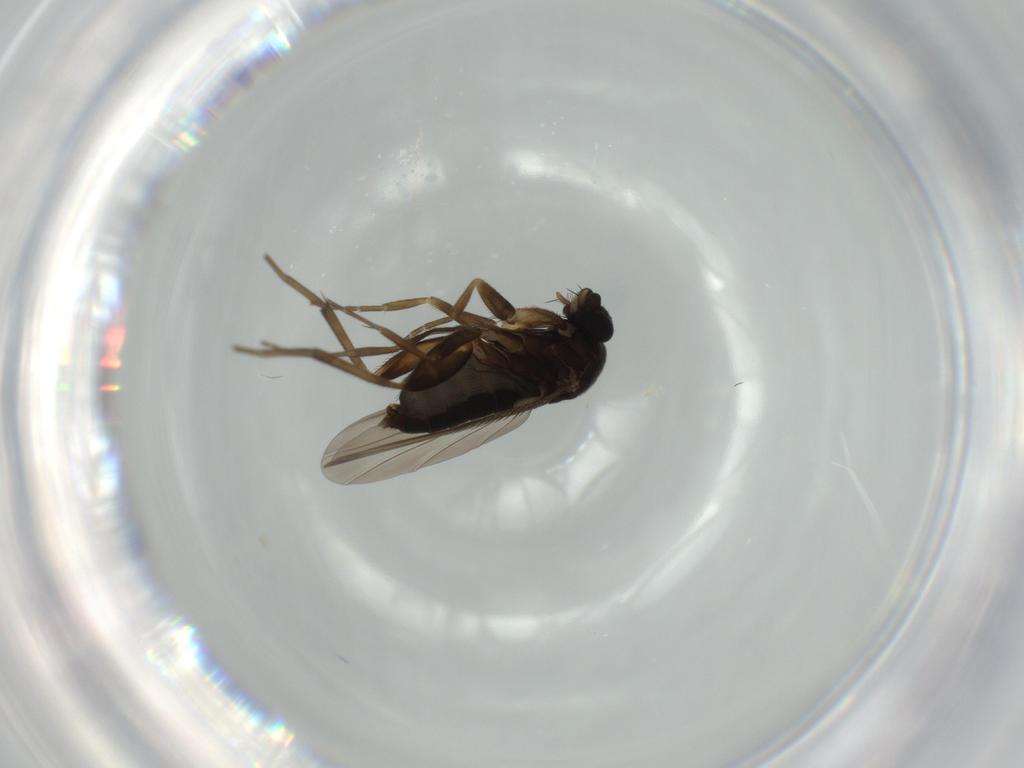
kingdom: Animalia
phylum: Arthropoda
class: Insecta
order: Diptera
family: Phoridae
